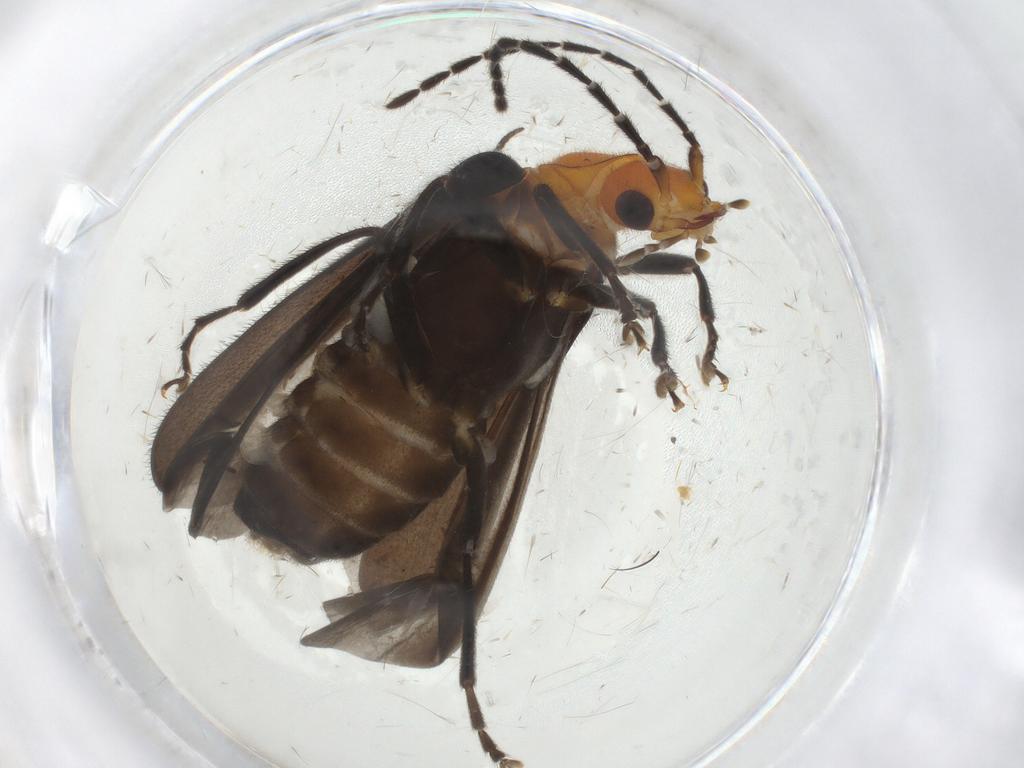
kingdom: Animalia
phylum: Arthropoda
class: Insecta
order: Coleoptera
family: Cantharidae
